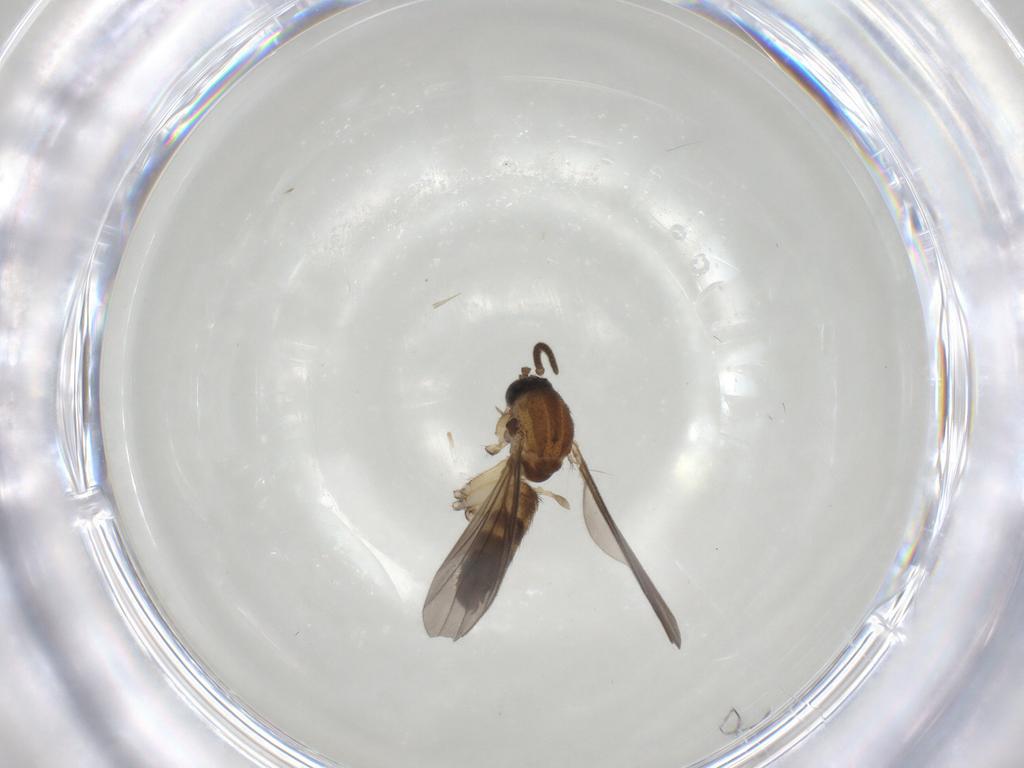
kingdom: Animalia
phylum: Arthropoda
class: Insecta
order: Diptera
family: Mycetophilidae
